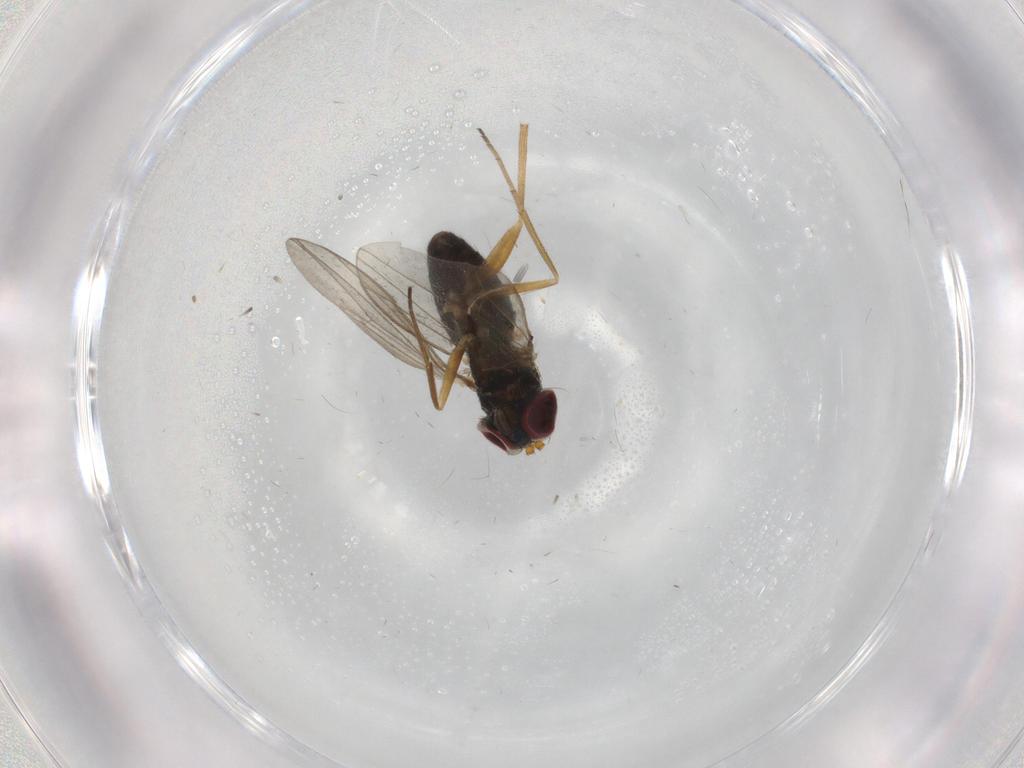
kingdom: Animalia
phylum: Arthropoda
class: Insecta
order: Diptera
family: Dolichopodidae
